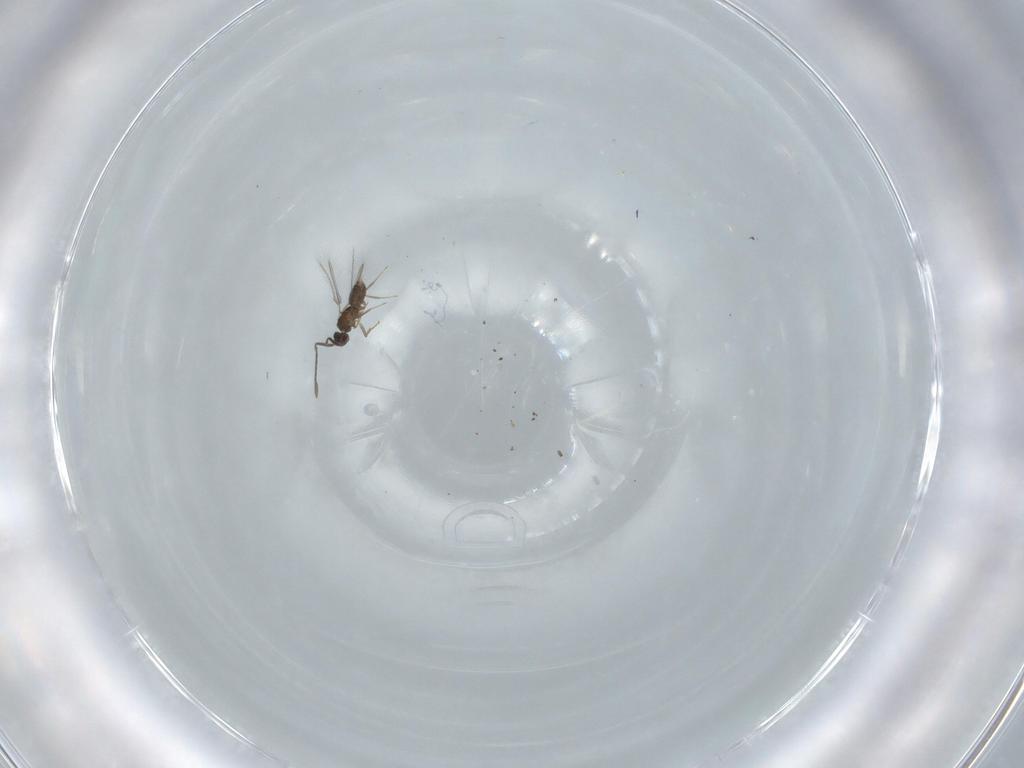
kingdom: Animalia
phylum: Arthropoda
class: Insecta
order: Hymenoptera
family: Mymaridae
